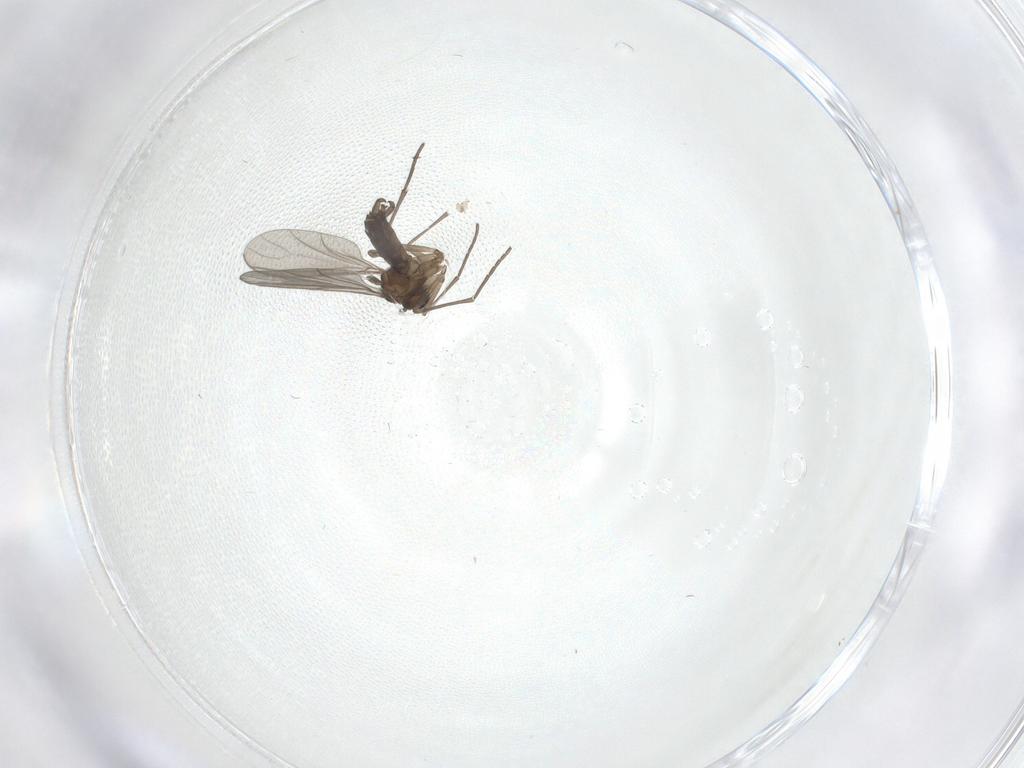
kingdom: Animalia
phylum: Arthropoda
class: Insecta
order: Diptera
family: Sciaridae
